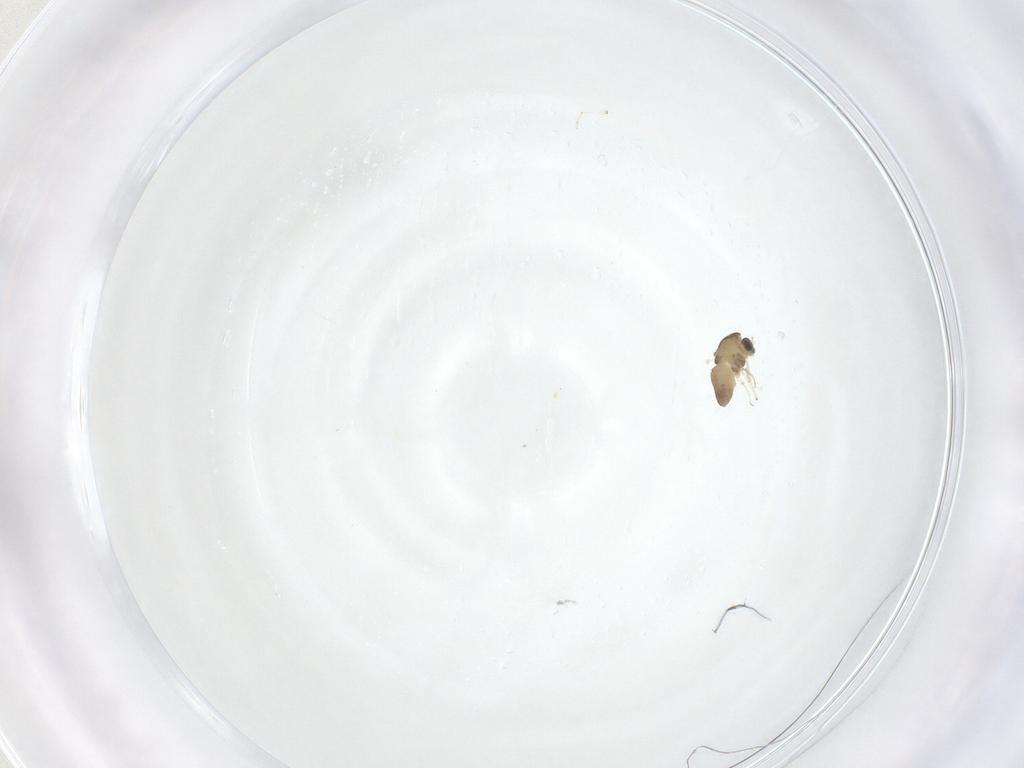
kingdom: Animalia
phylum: Arthropoda
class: Insecta
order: Diptera
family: Chironomidae
